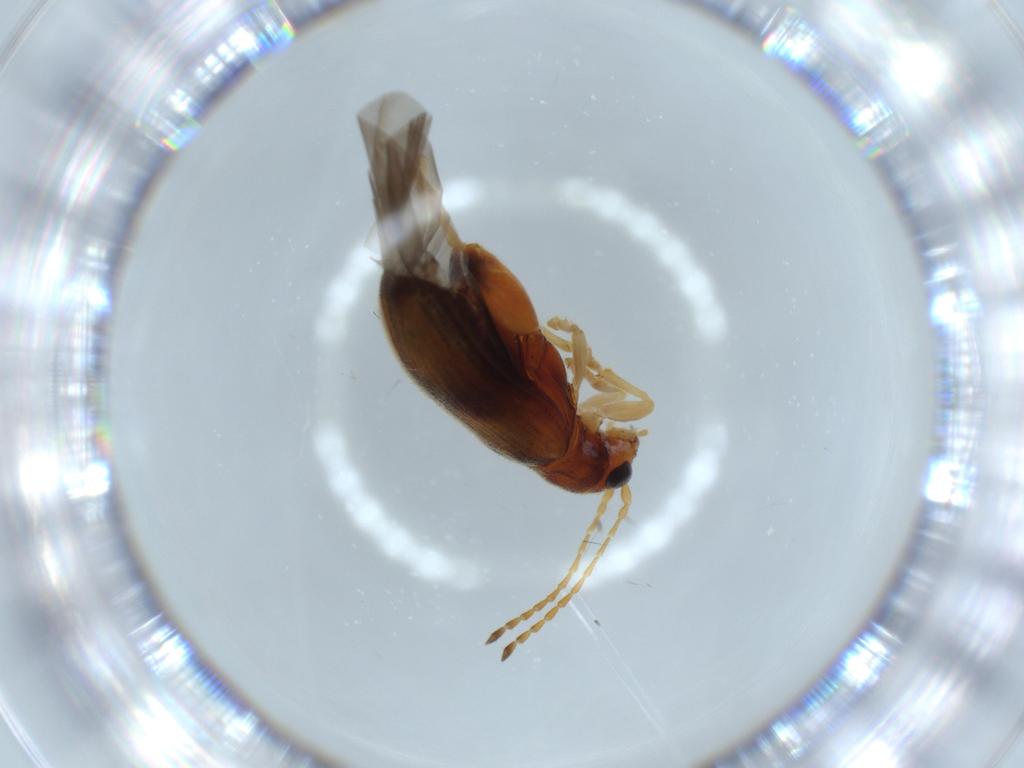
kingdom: Animalia
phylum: Arthropoda
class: Insecta
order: Coleoptera
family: Chrysomelidae
